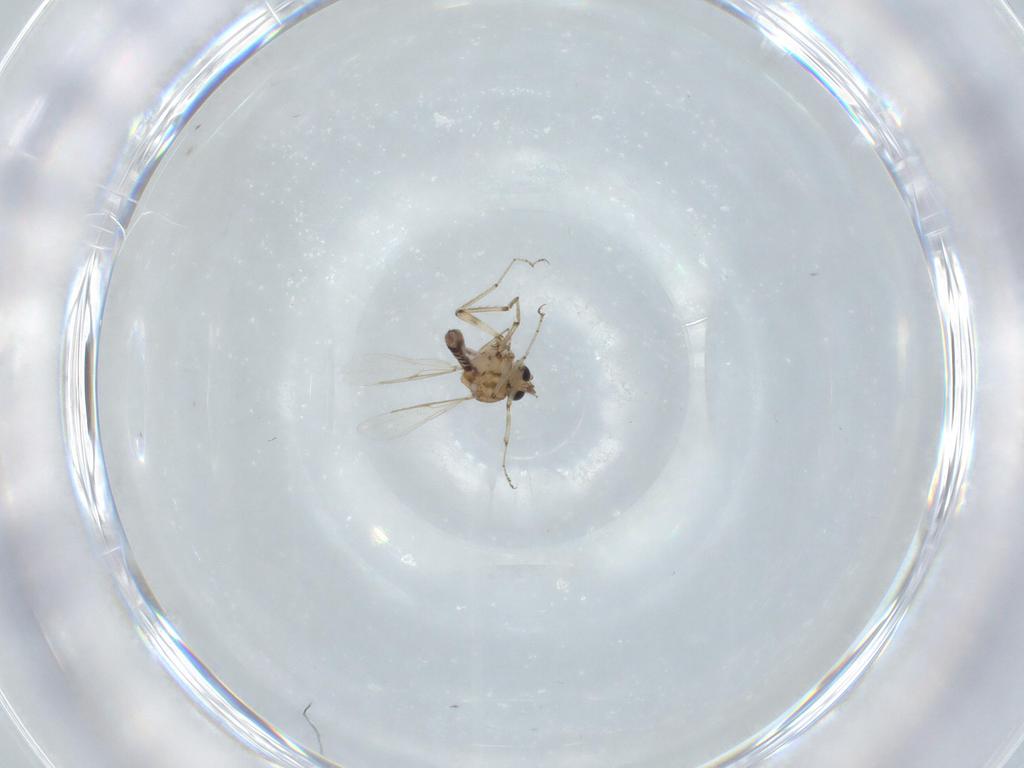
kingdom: Animalia
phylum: Arthropoda
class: Insecta
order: Diptera
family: Ceratopogonidae
